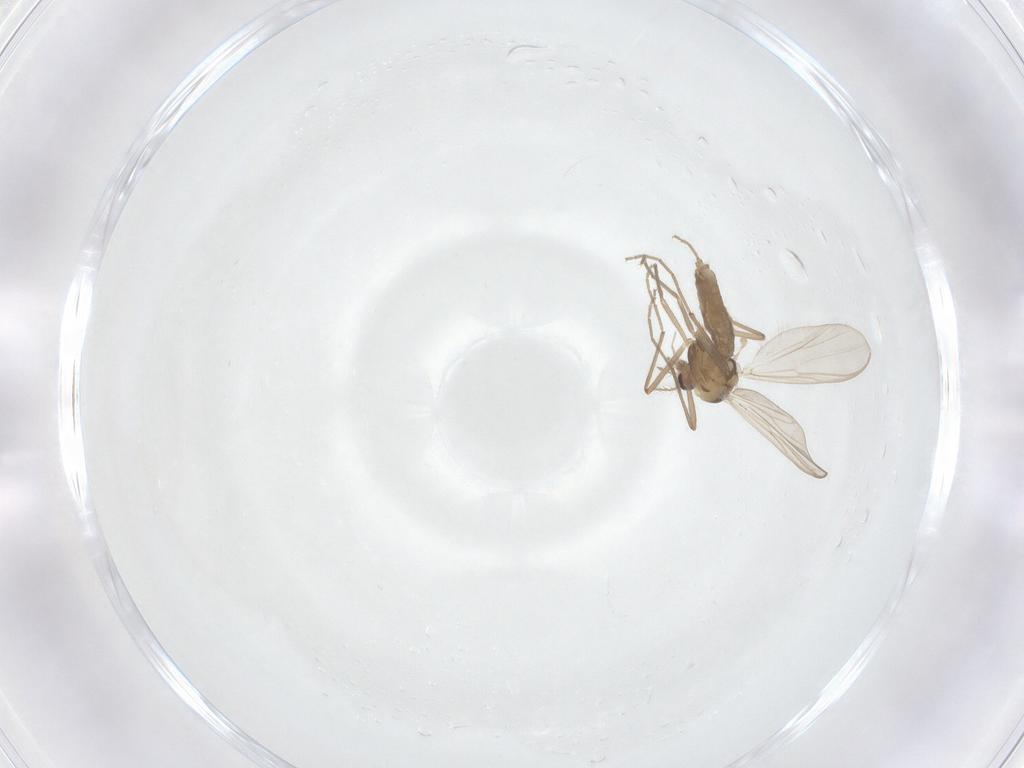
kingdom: Animalia
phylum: Arthropoda
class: Insecta
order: Diptera
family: Chironomidae
